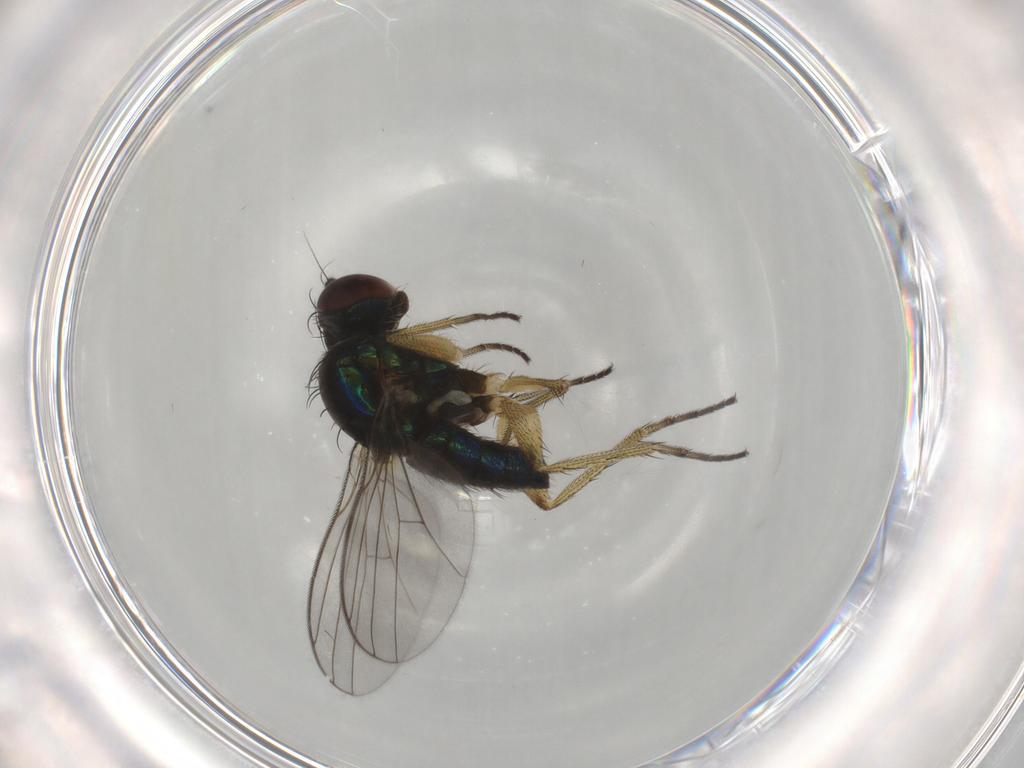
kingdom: Animalia
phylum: Arthropoda
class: Insecta
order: Diptera
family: Dolichopodidae
